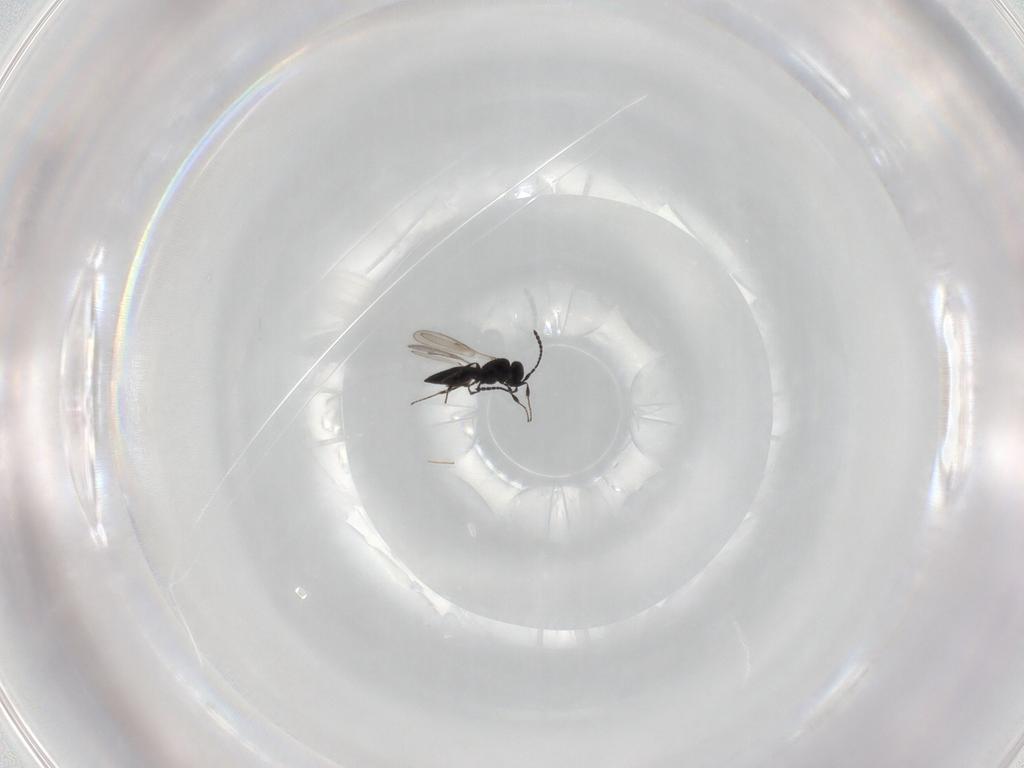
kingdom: Animalia
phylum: Arthropoda
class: Insecta
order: Hymenoptera
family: Scelionidae
